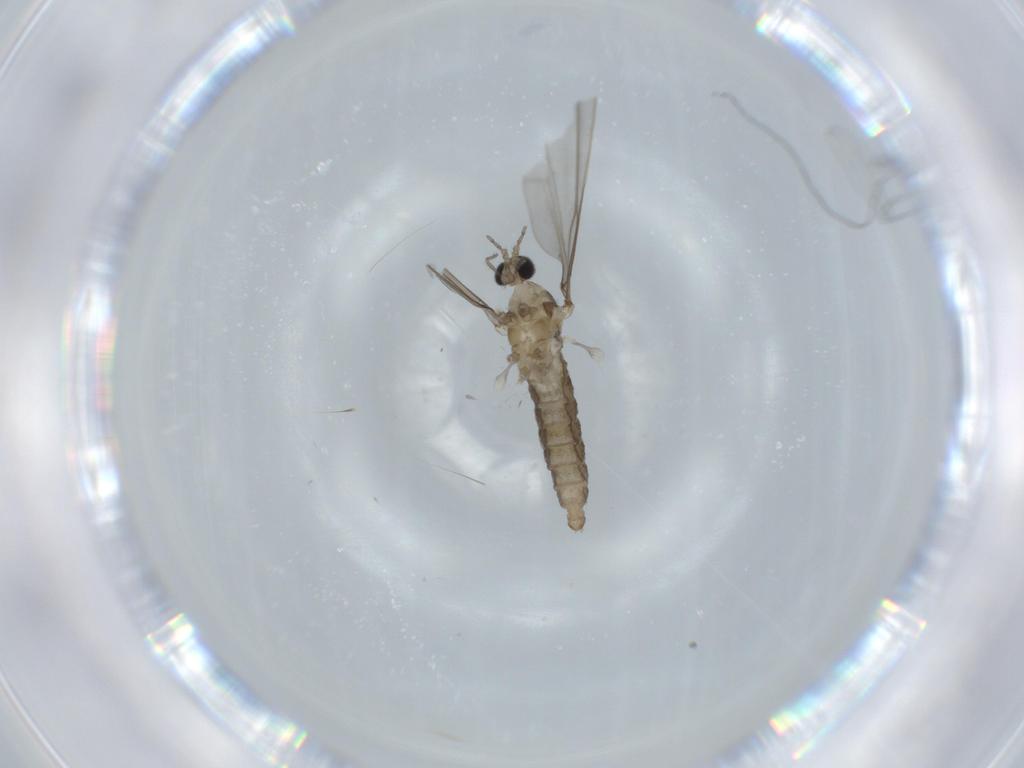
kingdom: Animalia
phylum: Arthropoda
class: Insecta
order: Diptera
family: Cecidomyiidae
